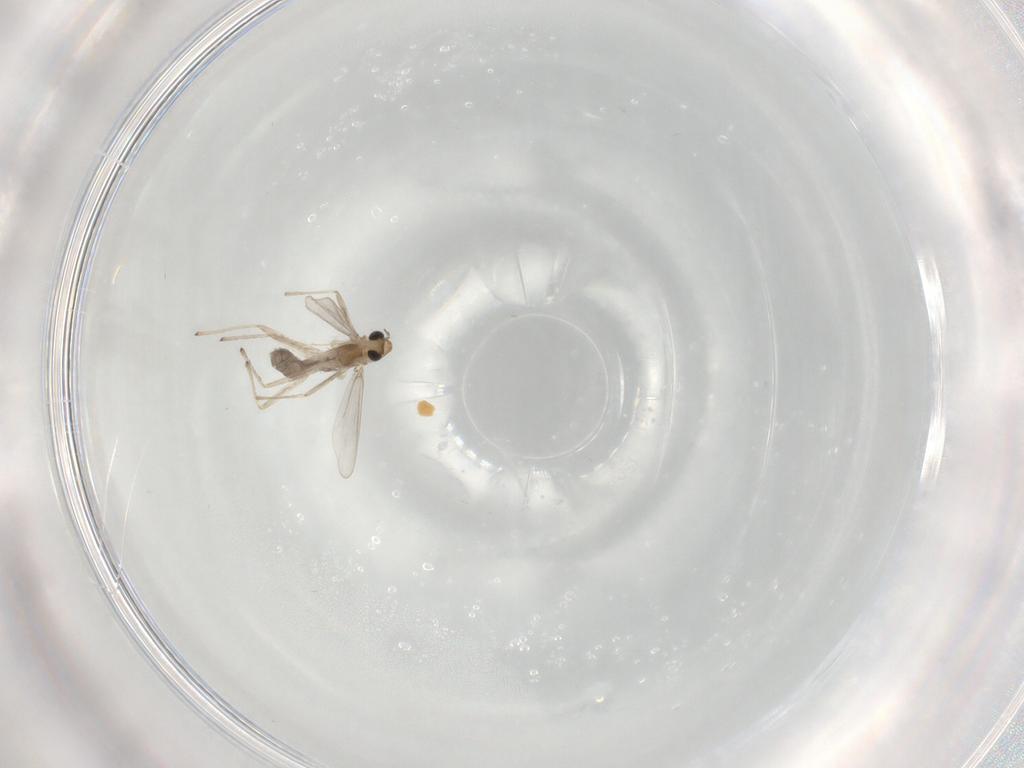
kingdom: Animalia
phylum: Arthropoda
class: Insecta
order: Diptera
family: Chironomidae
